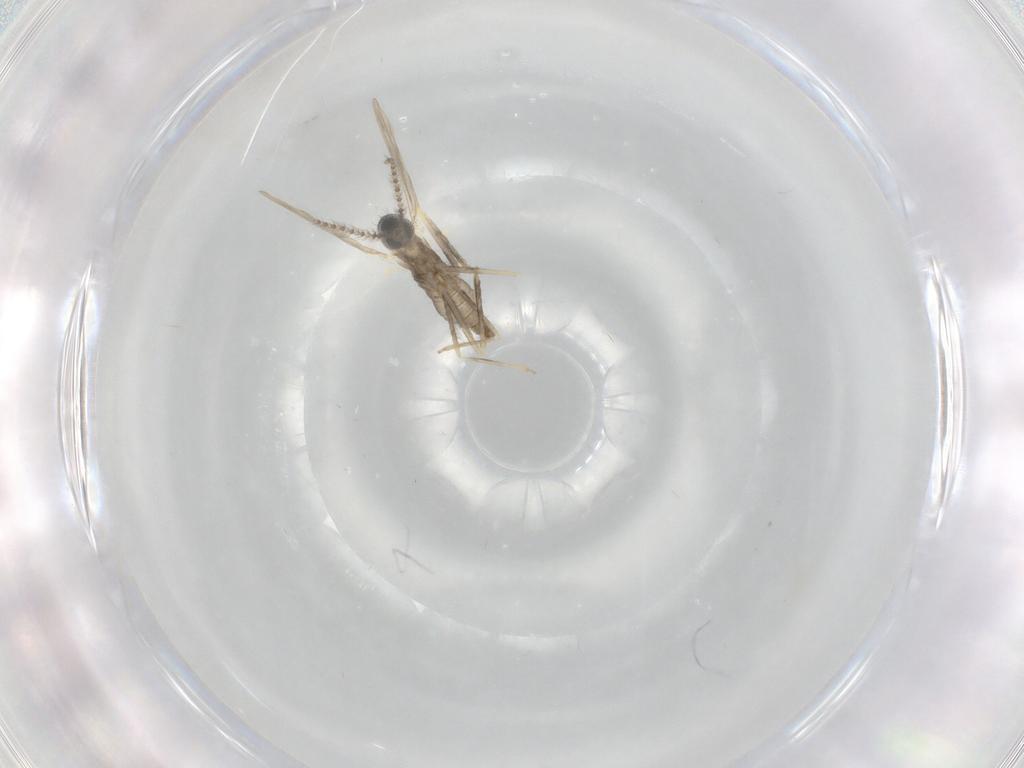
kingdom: Animalia
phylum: Arthropoda
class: Insecta
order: Diptera
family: Cecidomyiidae
